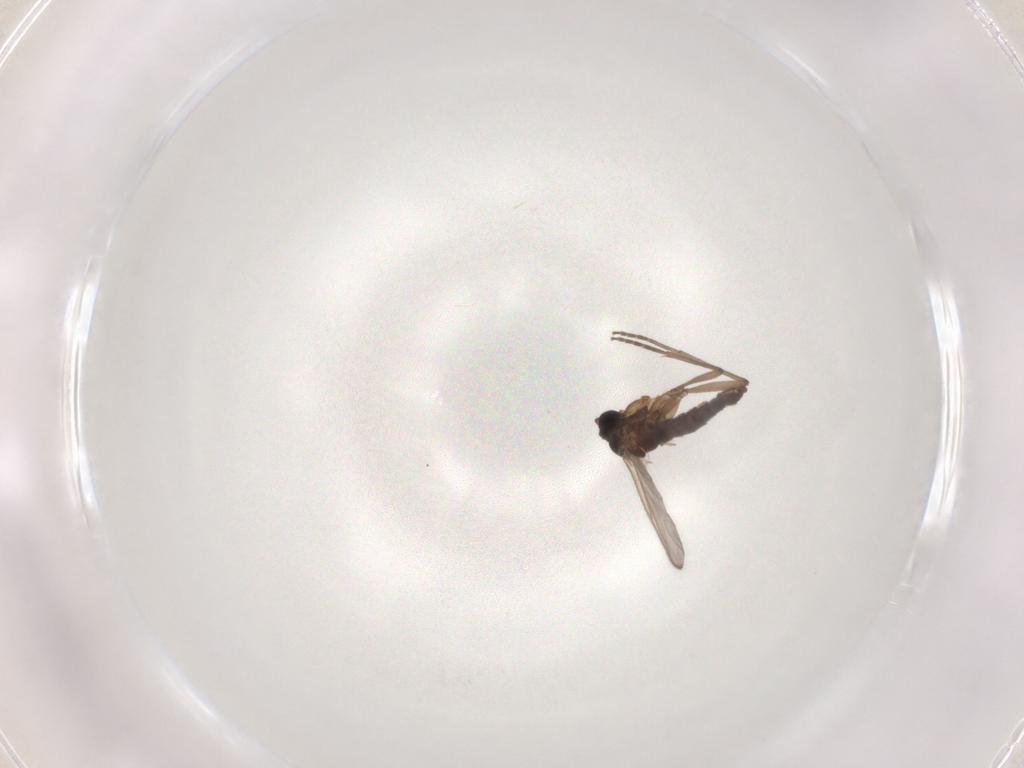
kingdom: Animalia
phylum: Arthropoda
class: Insecta
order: Diptera
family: Sciaridae
